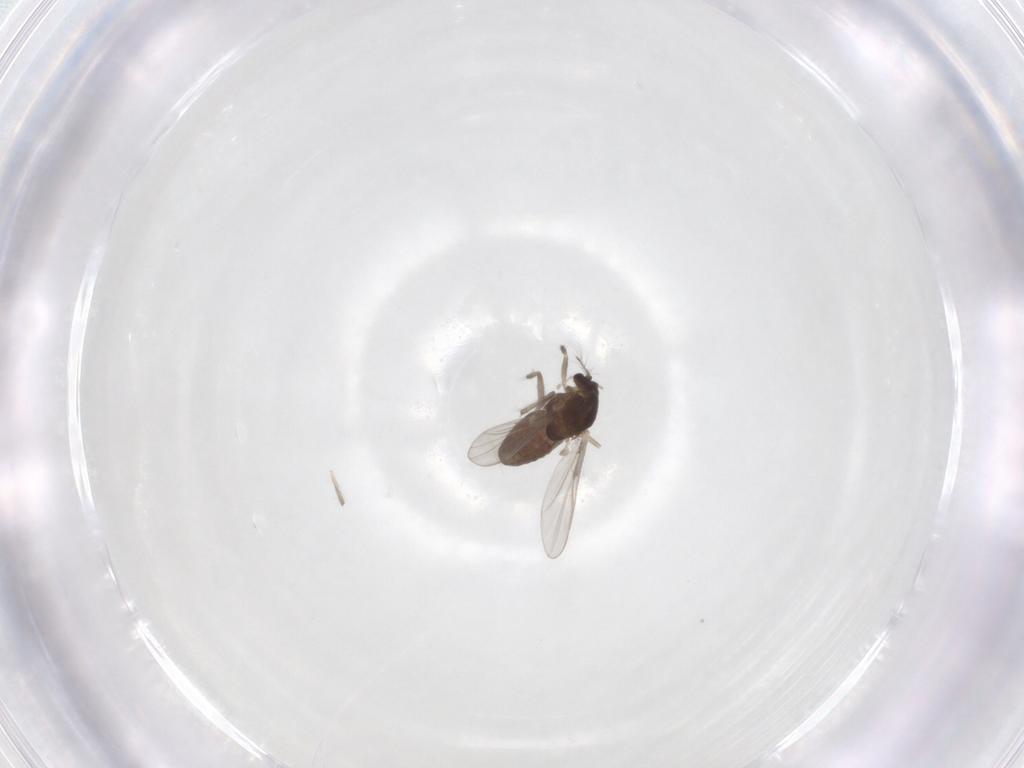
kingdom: Animalia
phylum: Arthropoda
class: Insecta
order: Diptera
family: Chironomidae
